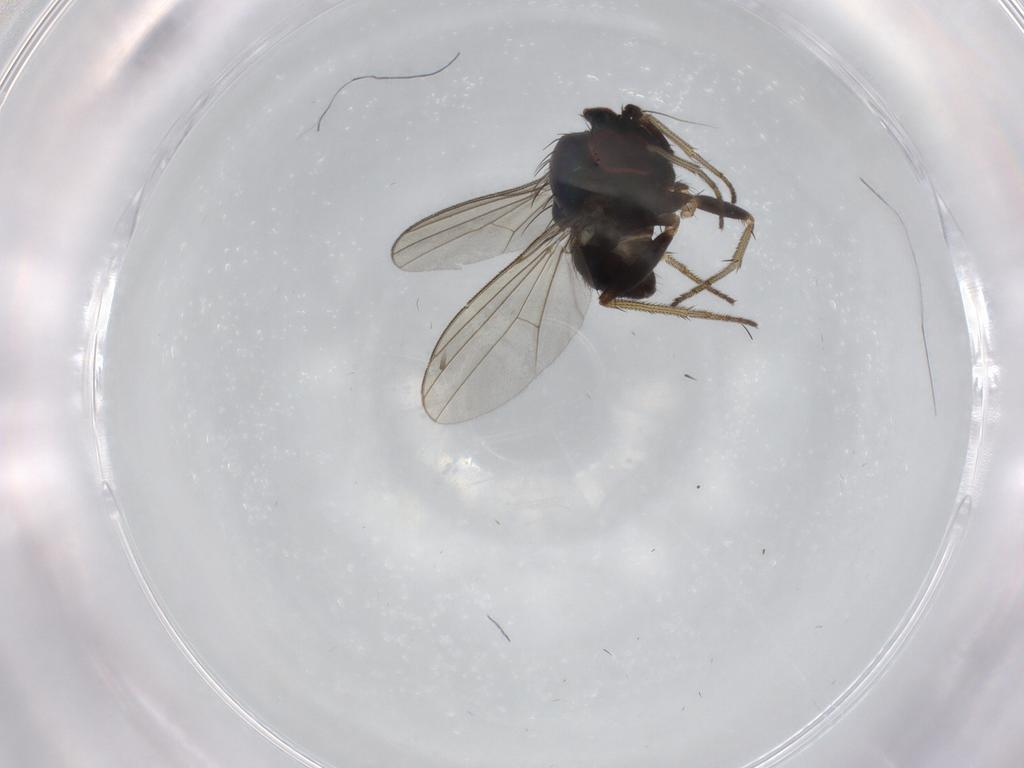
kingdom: Animalia
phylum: Arthropoda
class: Insecta
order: Diptera
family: Dolichopodidae
